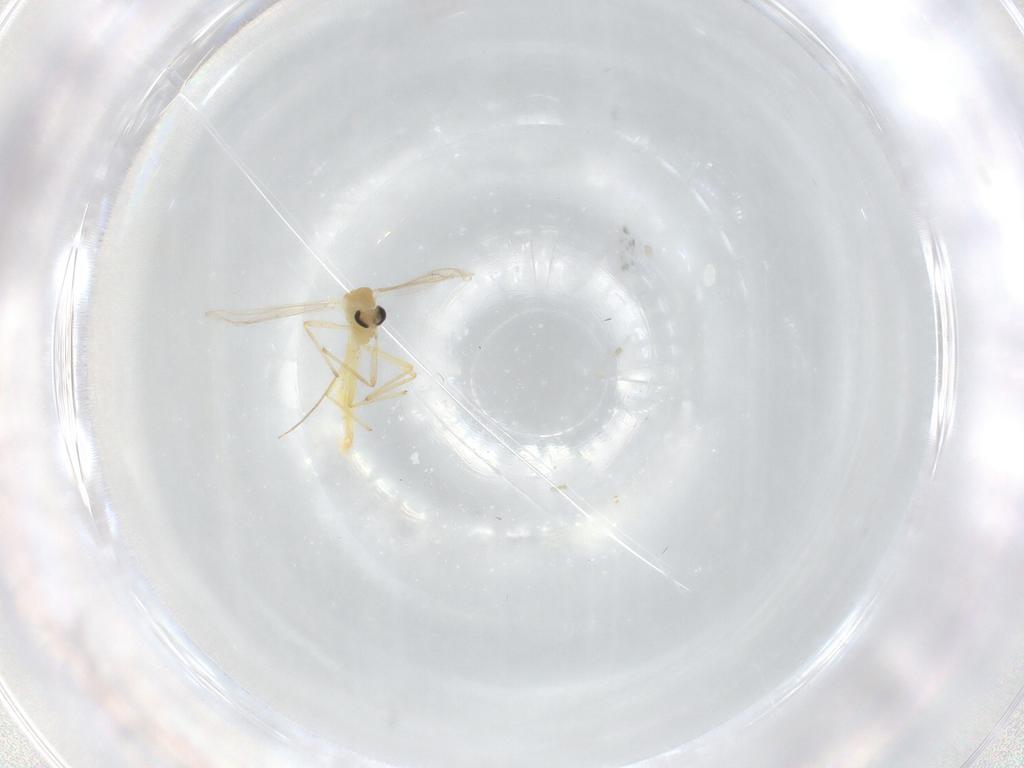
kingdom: Animalia
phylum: Arthropoda
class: Insecta
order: Diptera
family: Chironomidae
